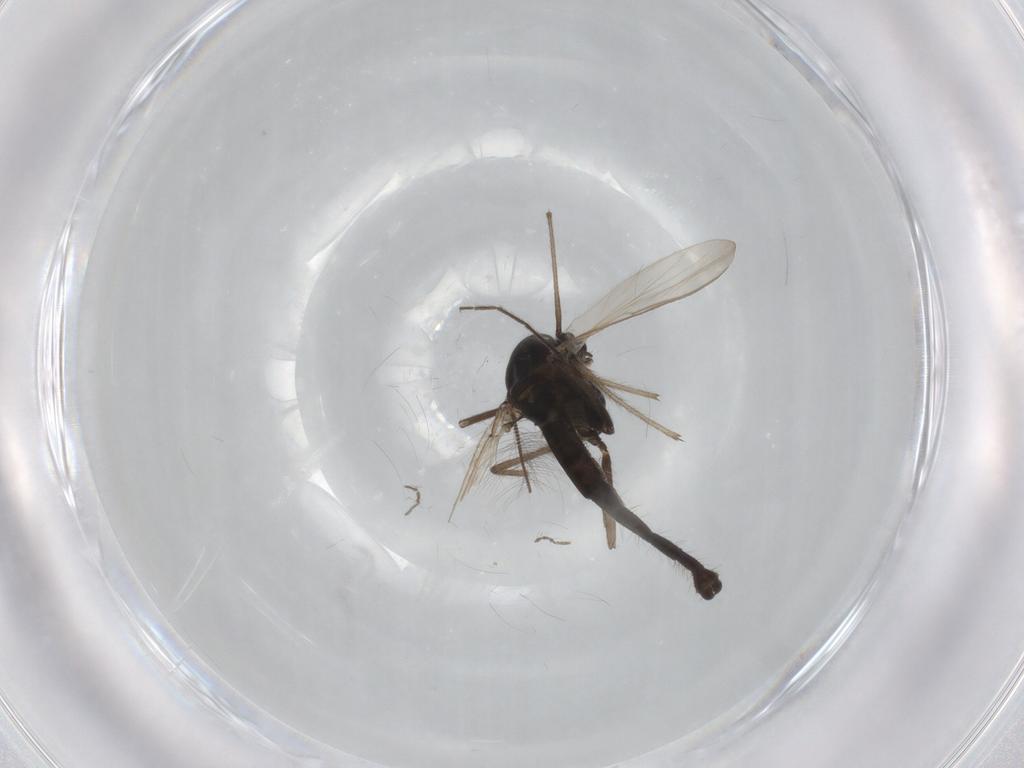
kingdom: Animalia
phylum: Arthropoda
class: Insecta
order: Diptera
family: Chironomidae
